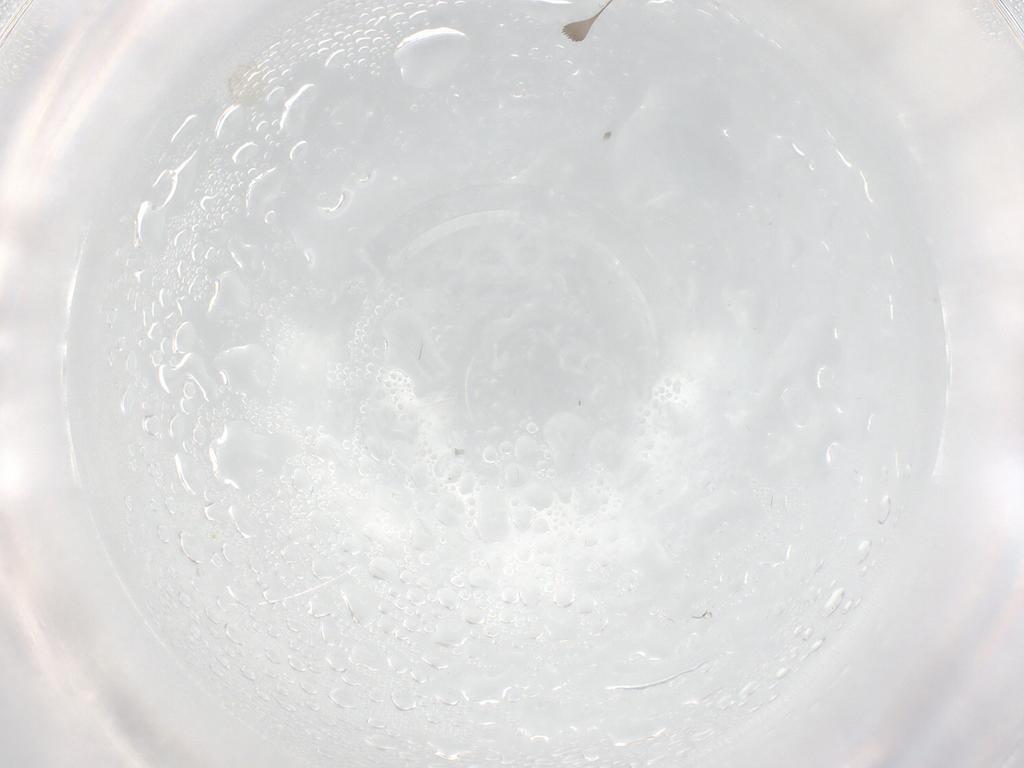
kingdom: Animalia
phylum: Arthropoda
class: Insecta
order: Diptera
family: Cecidomyiidae
